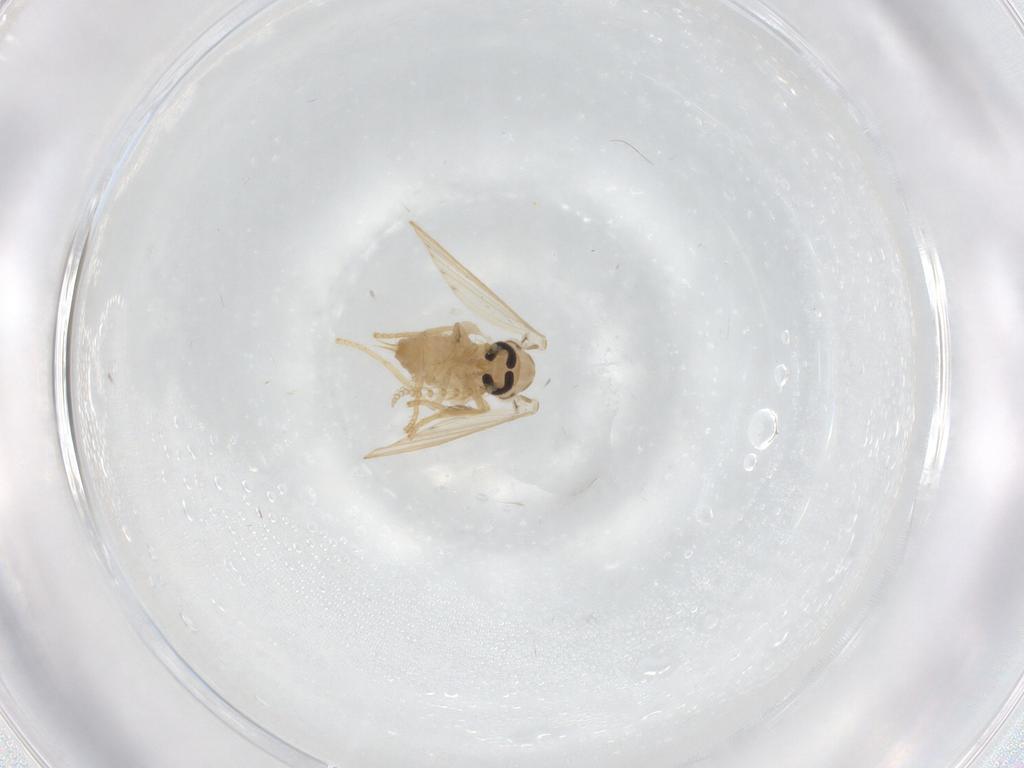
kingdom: Animalia
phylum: Arthropoda
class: Insecta
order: Diptera
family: Psychodidae
